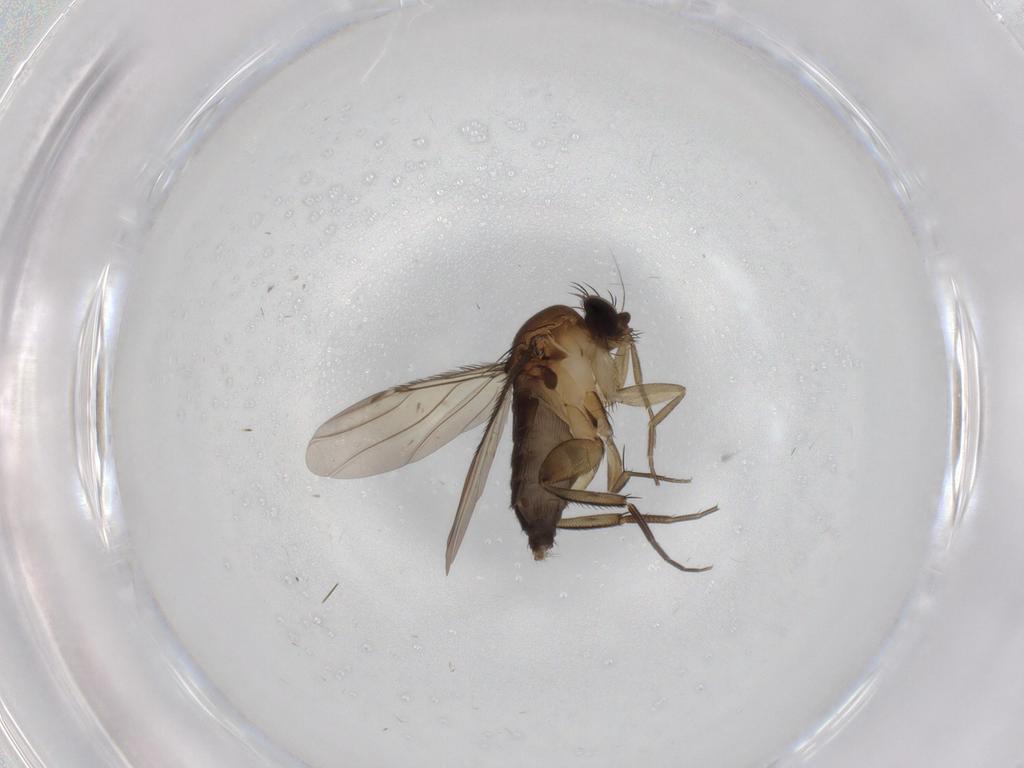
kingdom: Animalia
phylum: Arthropoda
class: Insecta
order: Diptera
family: Phoridae
